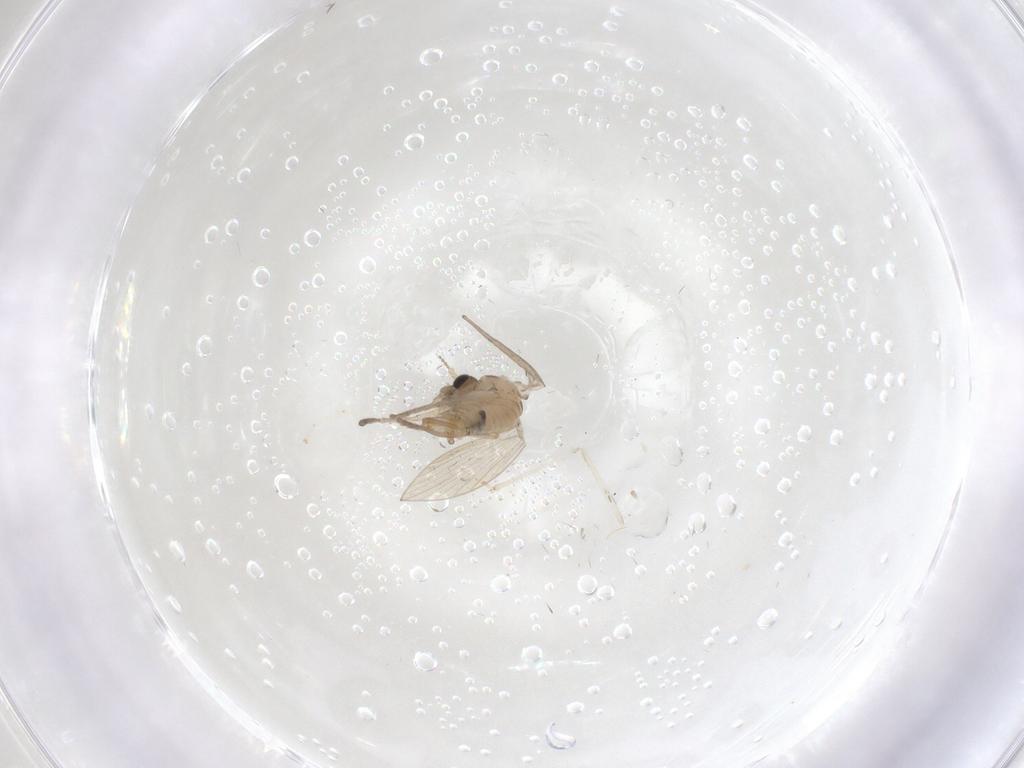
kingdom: Animalia
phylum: Arthropoda
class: Insecta
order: Diptera
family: Psychodidae
